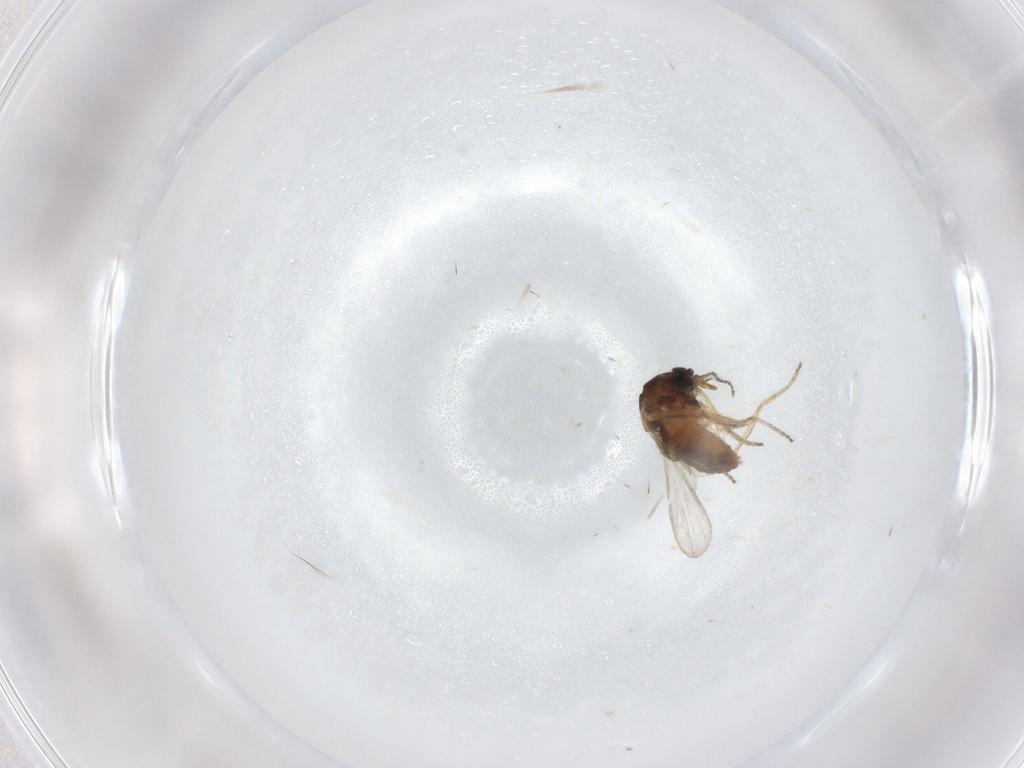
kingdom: Animalia
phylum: Arthropoda
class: Insecta
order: Diptera
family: Ceratopogonidae
